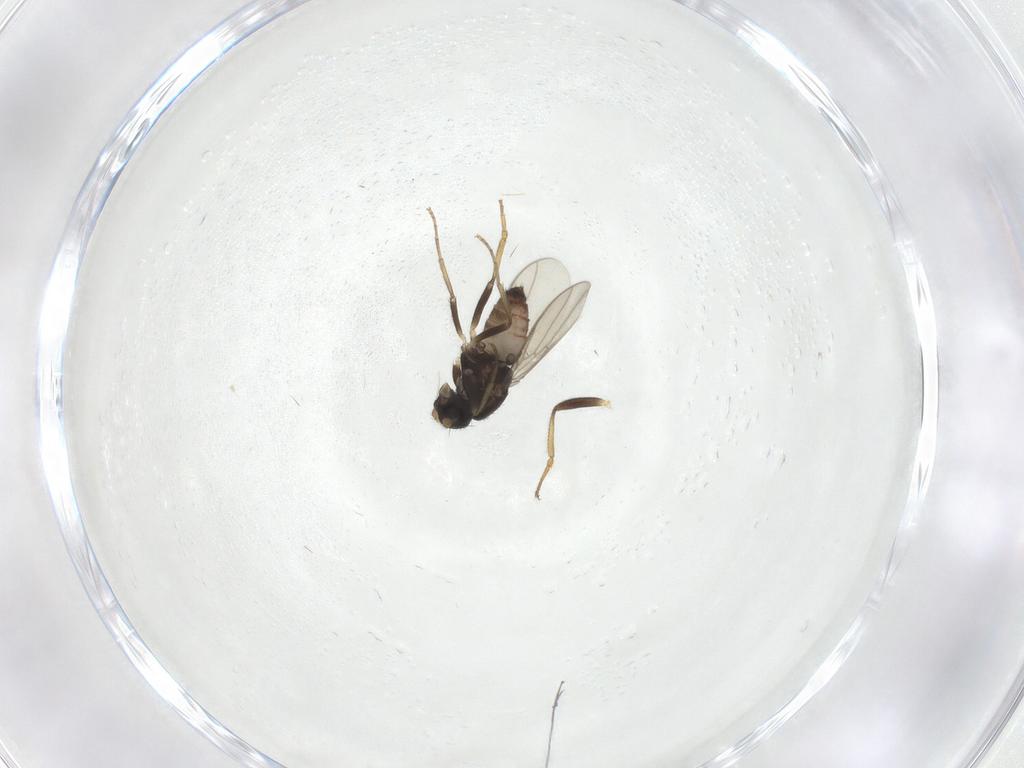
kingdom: Animalia
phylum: Arthropoda
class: Insecta
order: Diptera
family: Sphaeroceridae
